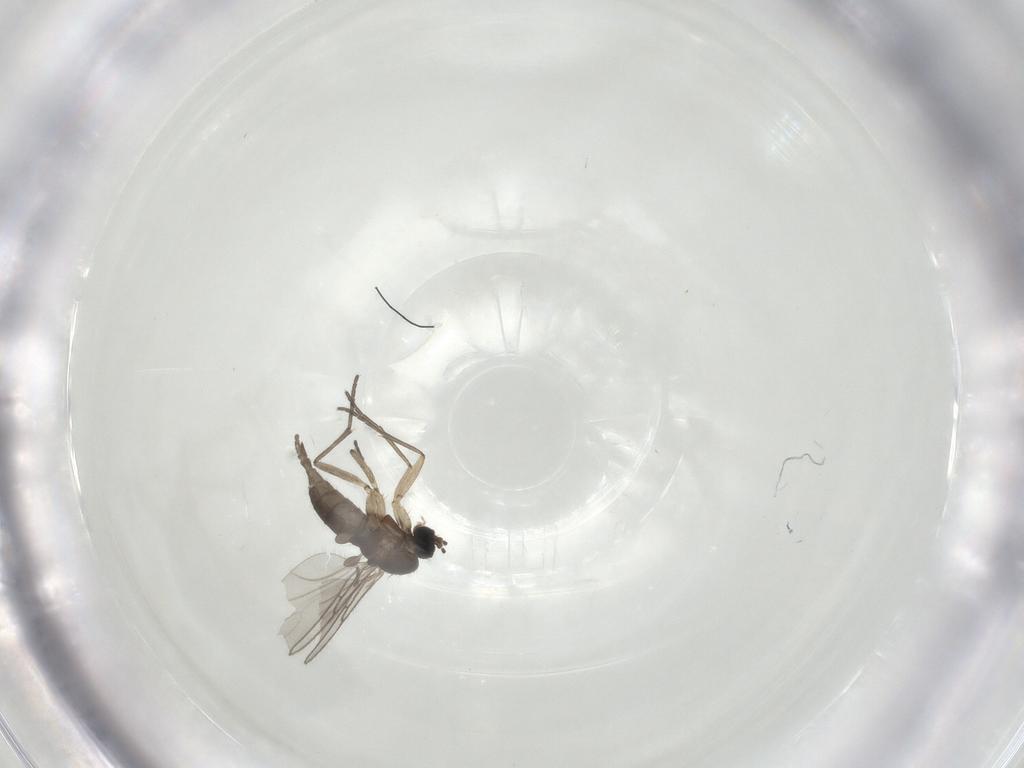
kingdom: Animalia
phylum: Arthropoda
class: Insecta
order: Diptera
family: Sciaridae
